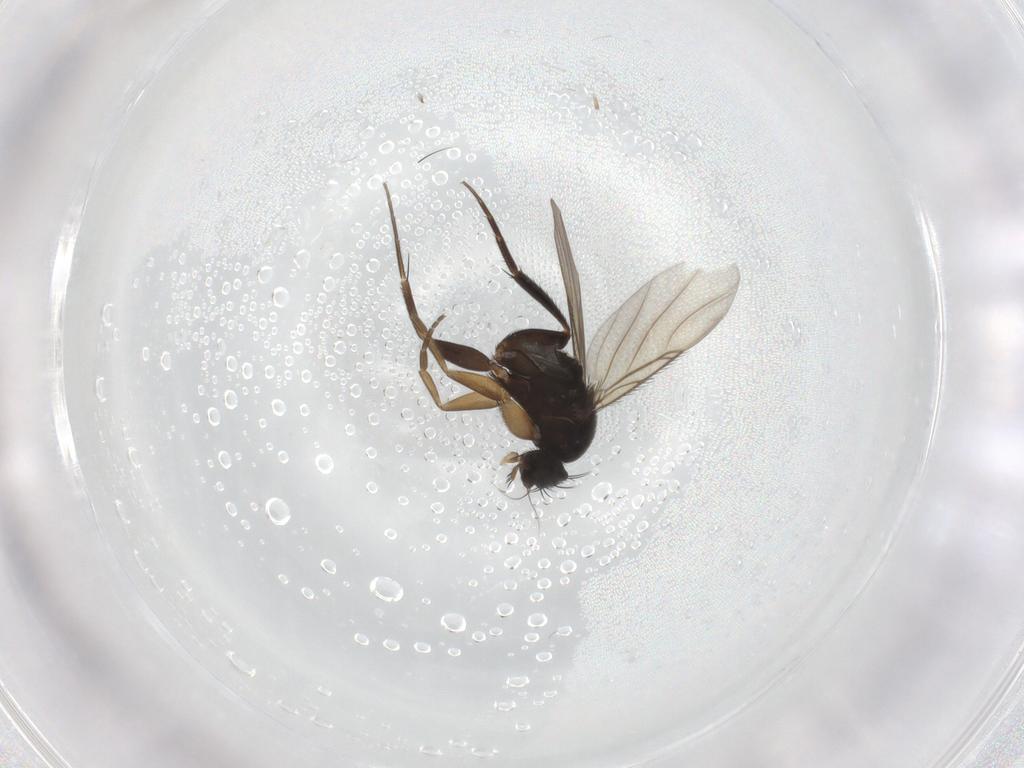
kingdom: Animalia
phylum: Arthropoda
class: Insecta
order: Diptera
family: Phoridae
